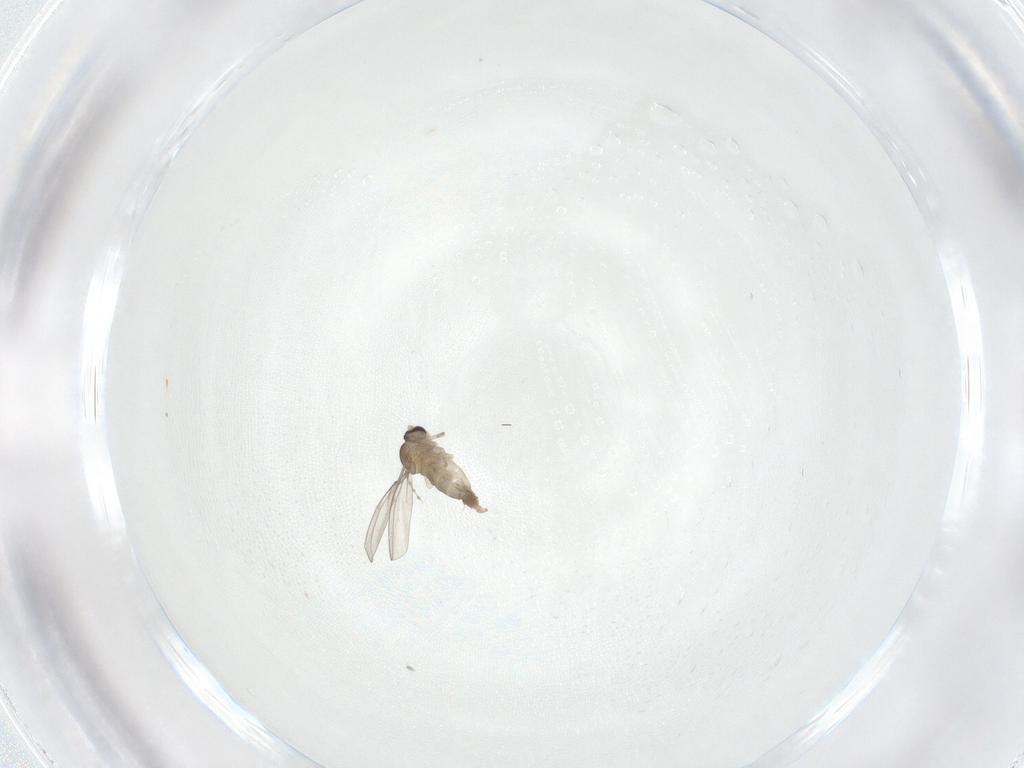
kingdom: Animalia
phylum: Arthropoda
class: Insecta
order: Diptera
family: Cecidomyiidae
